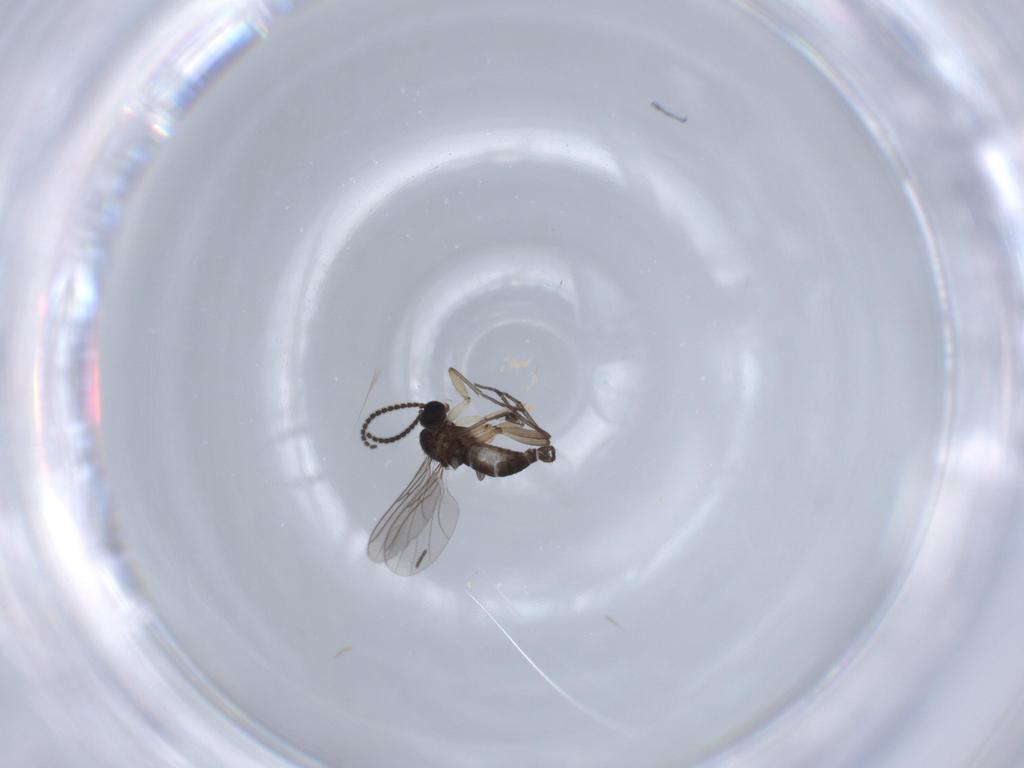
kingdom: Animalia
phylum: Arthropoda
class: Insecta
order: Diptera
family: Sciaridae
